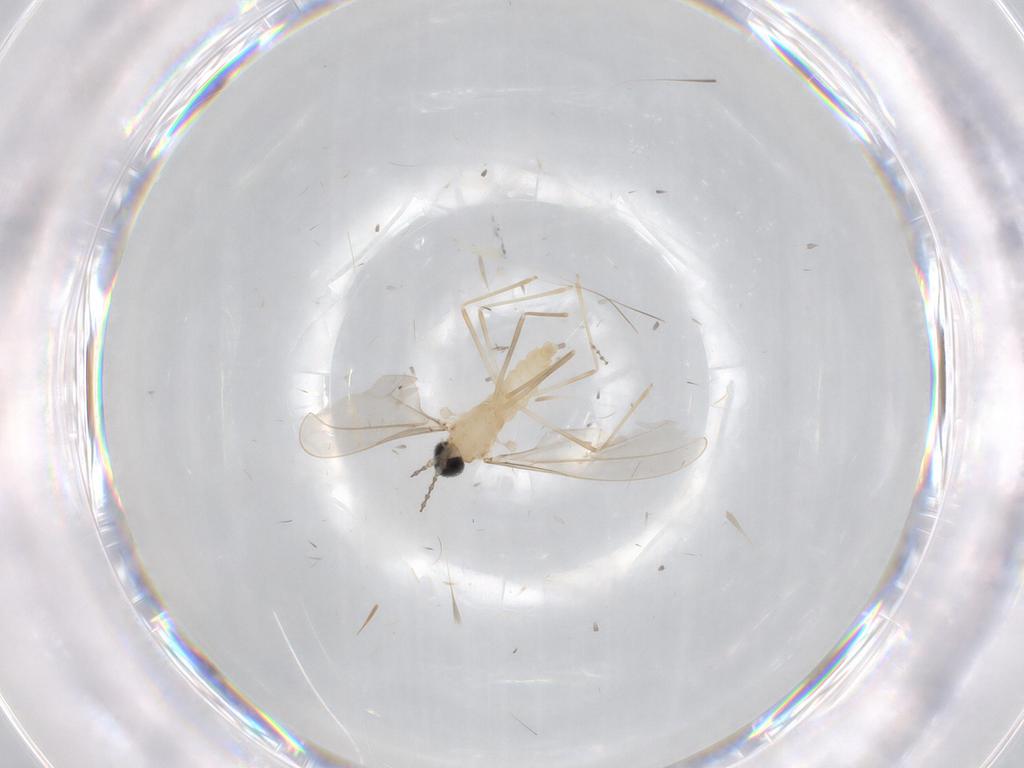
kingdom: Animalia
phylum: Arthropoda
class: Insecta
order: Diptera
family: Cecidomyiidae
